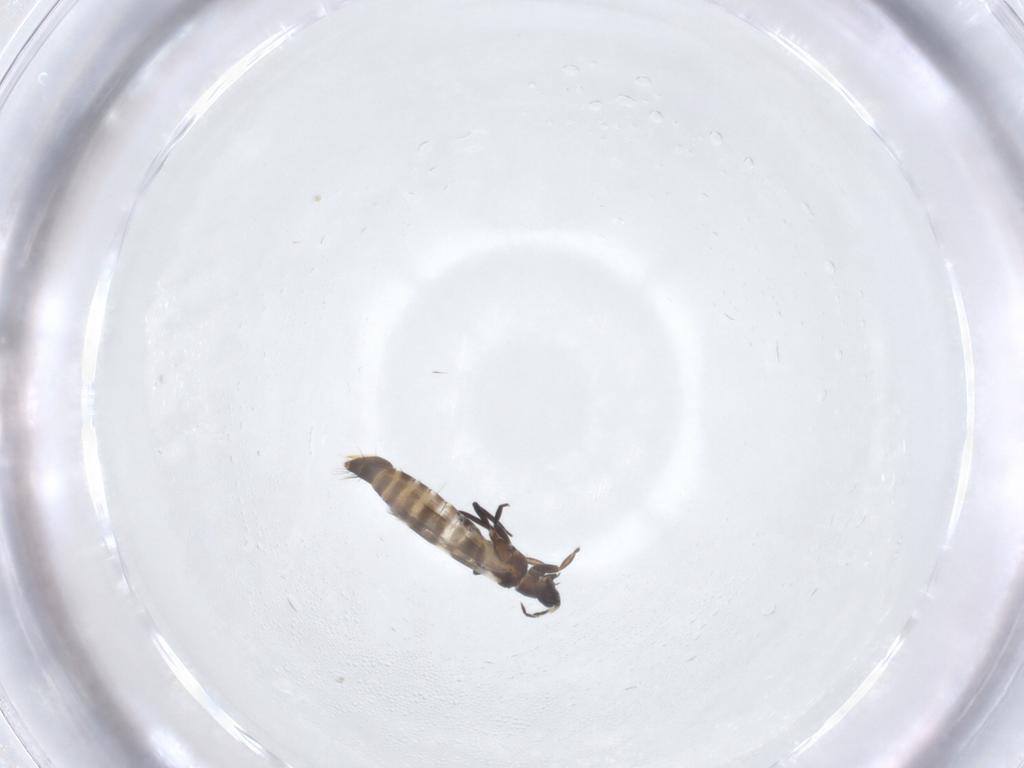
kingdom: Animalia
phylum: Arthropoda
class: Insecta
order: Thysanoptera
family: Aeolothripidae
